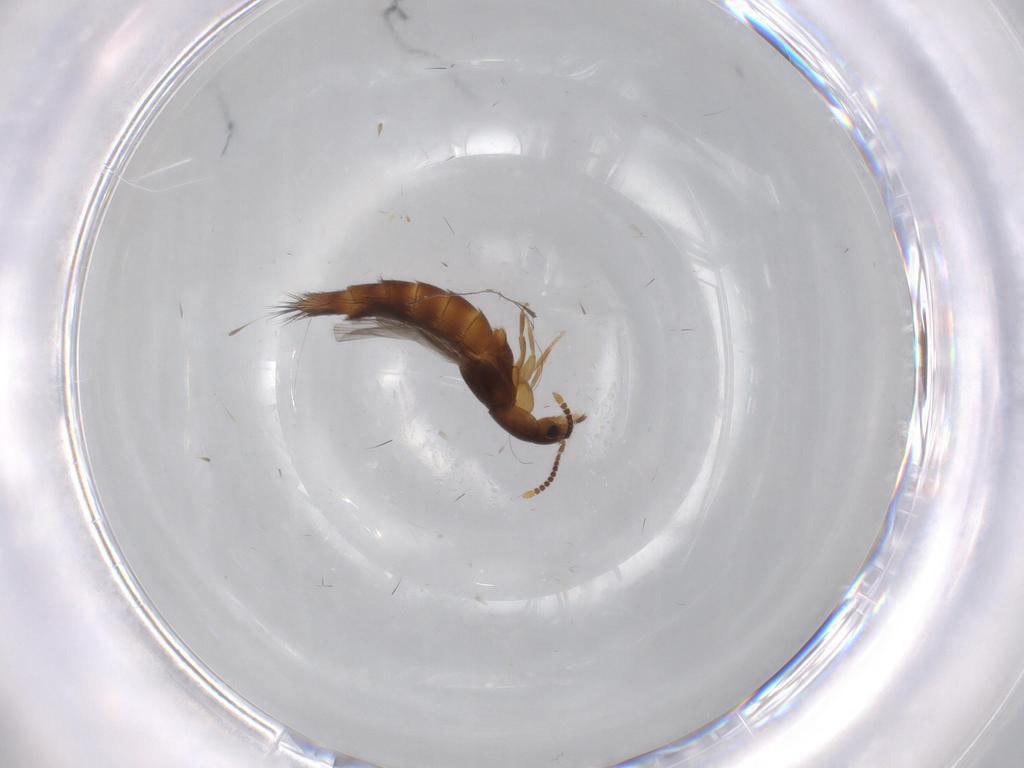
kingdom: Animalia
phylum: Arthropoda
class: Insecta
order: Coleoptera
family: Staphylinidae
